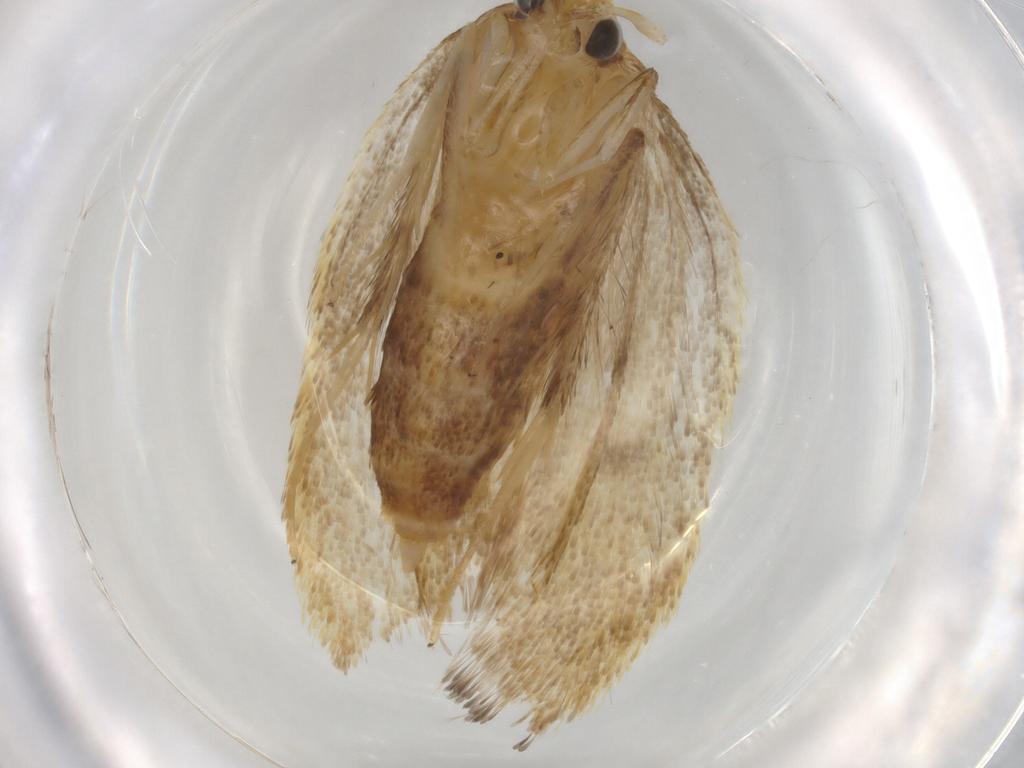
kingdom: Animalia
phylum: Arthropoda
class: Insecta
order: Lepidoptera
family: Lecithoceridae
